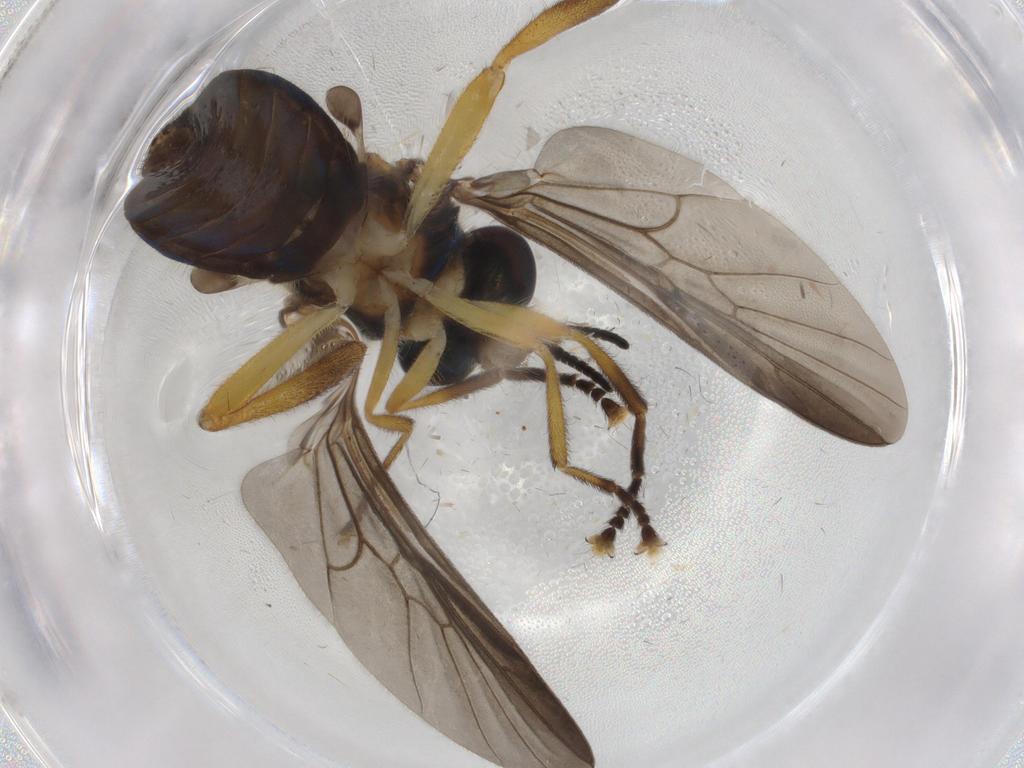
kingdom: Animalia
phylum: Arthropoda
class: Insecta
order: Diptera
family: Stratiomyidae
